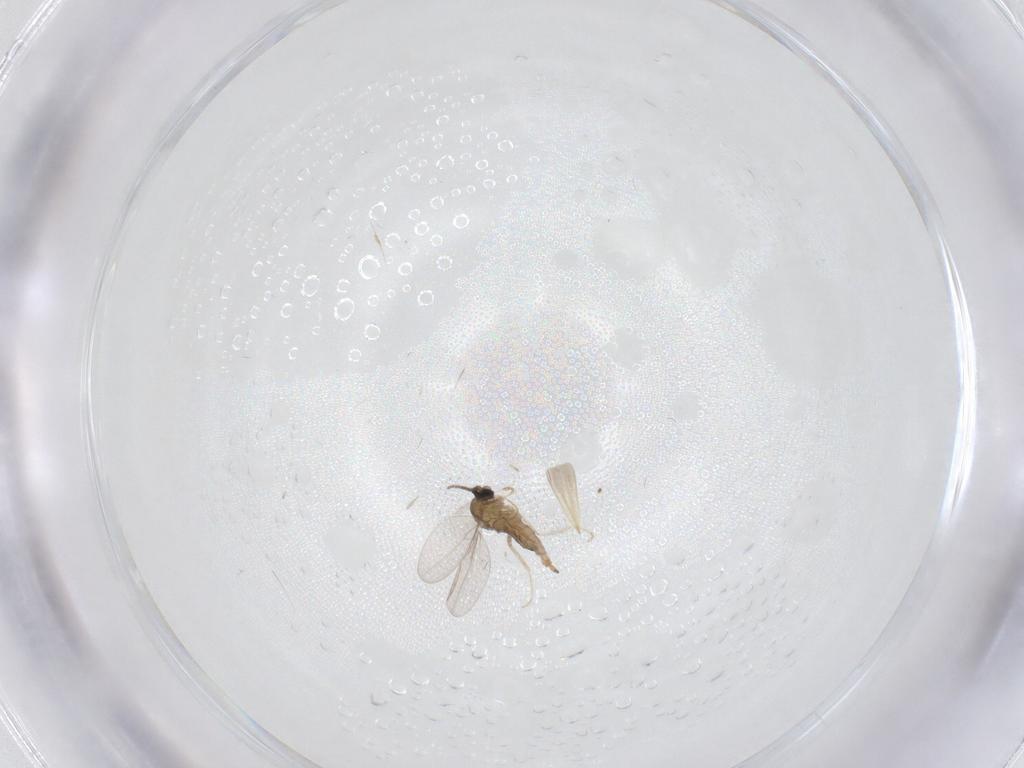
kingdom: Animalia
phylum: Arthropoda
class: Insecta
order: Diptera
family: Cecidomyiidae
